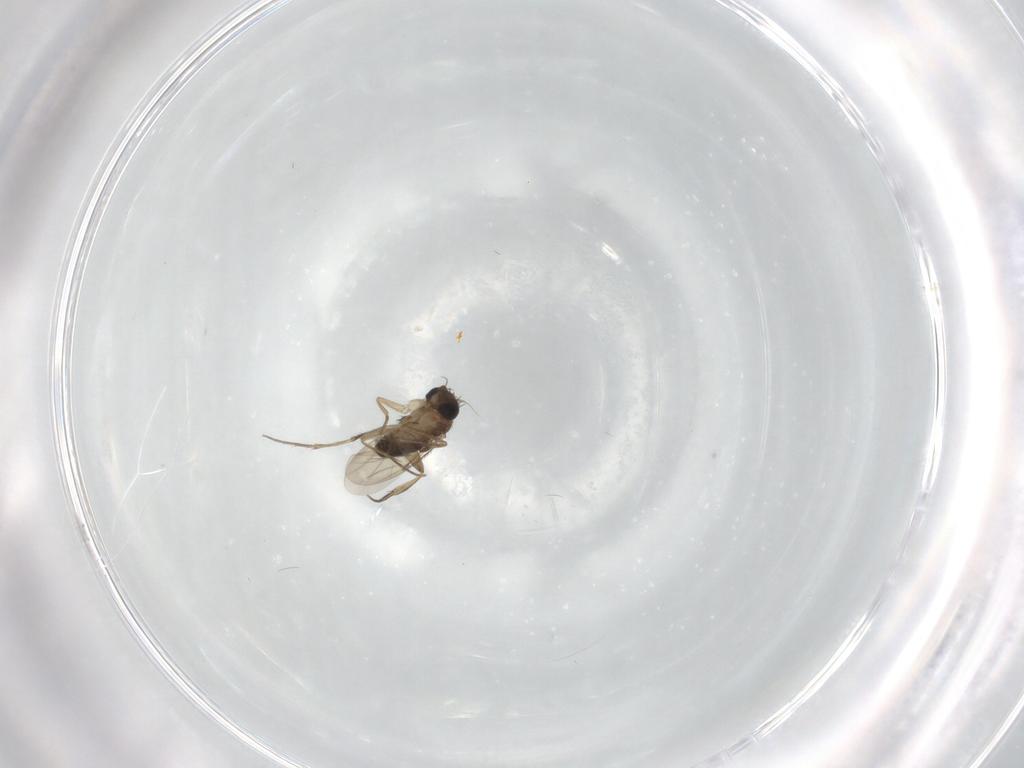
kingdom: Animalia
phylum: Arthropoda
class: Insecta
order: Diptera
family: Phoridae
